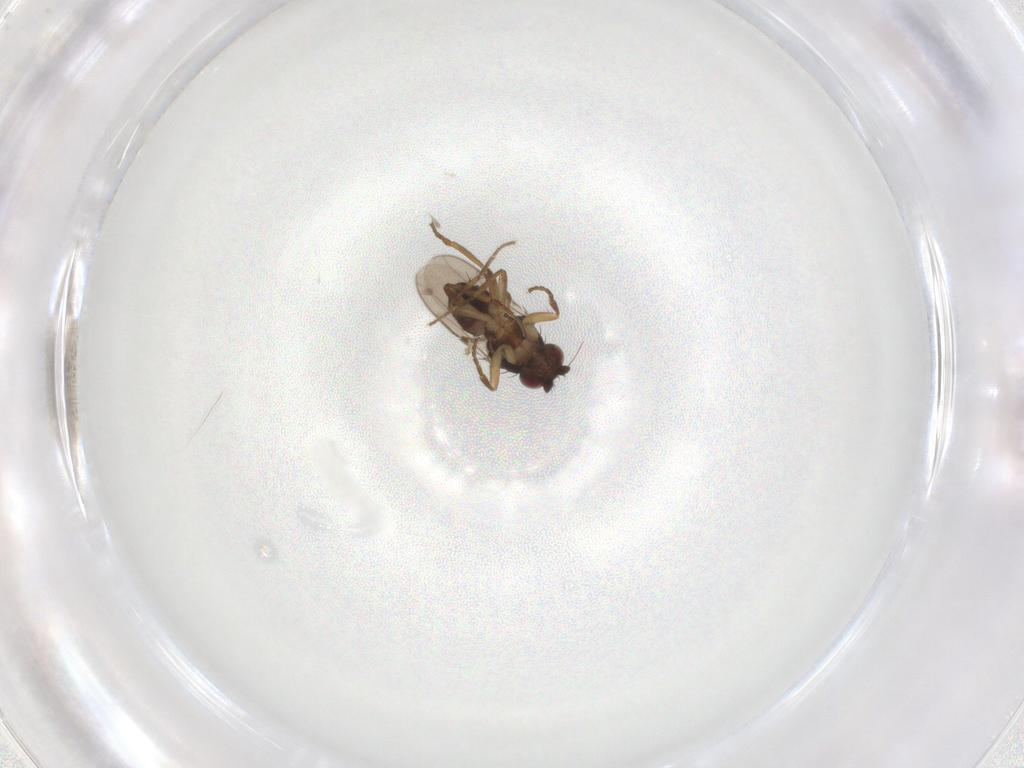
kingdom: Animalia
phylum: Arthropoda
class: Insecta
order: Diptera
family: Sphaeroceridae
